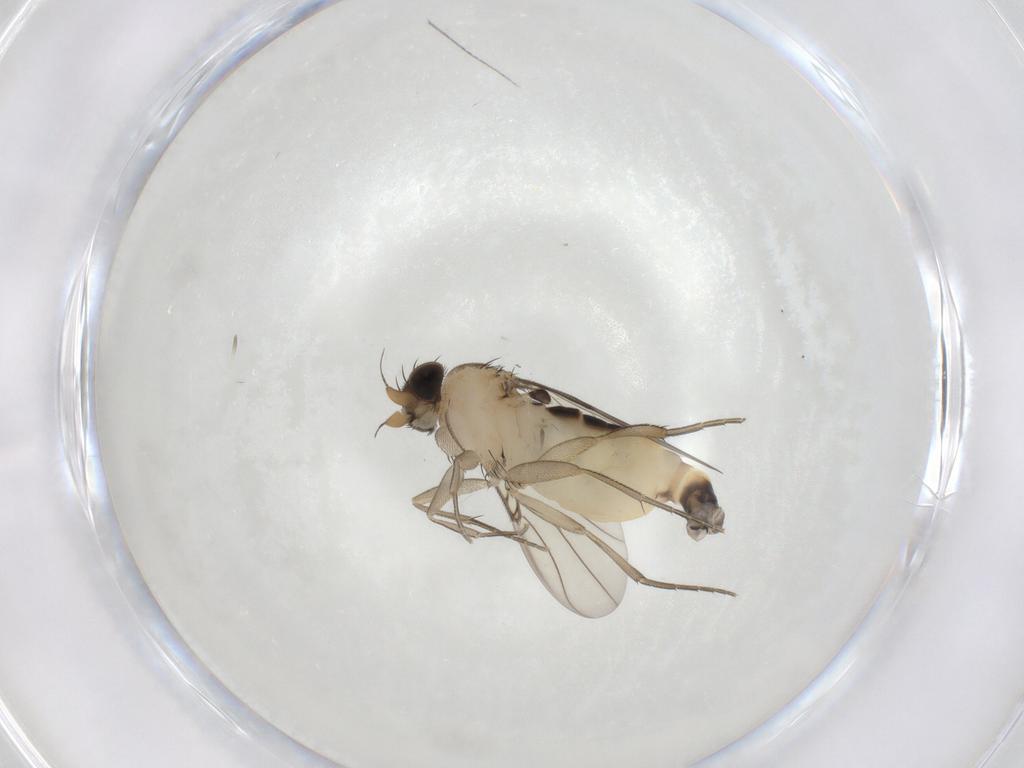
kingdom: Animalia
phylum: Arthropoda
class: Insecta
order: Diptera
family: Phoridae
